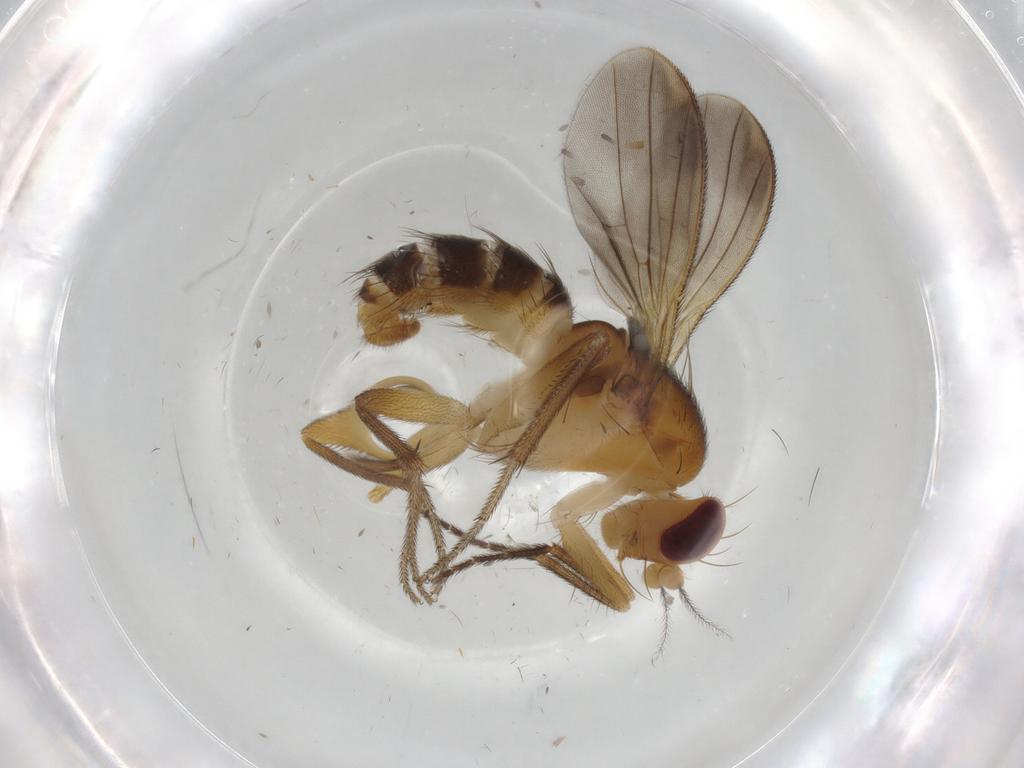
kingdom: Animalia
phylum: Arthropoda
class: Insecta
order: Diptera
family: Clusiidae
